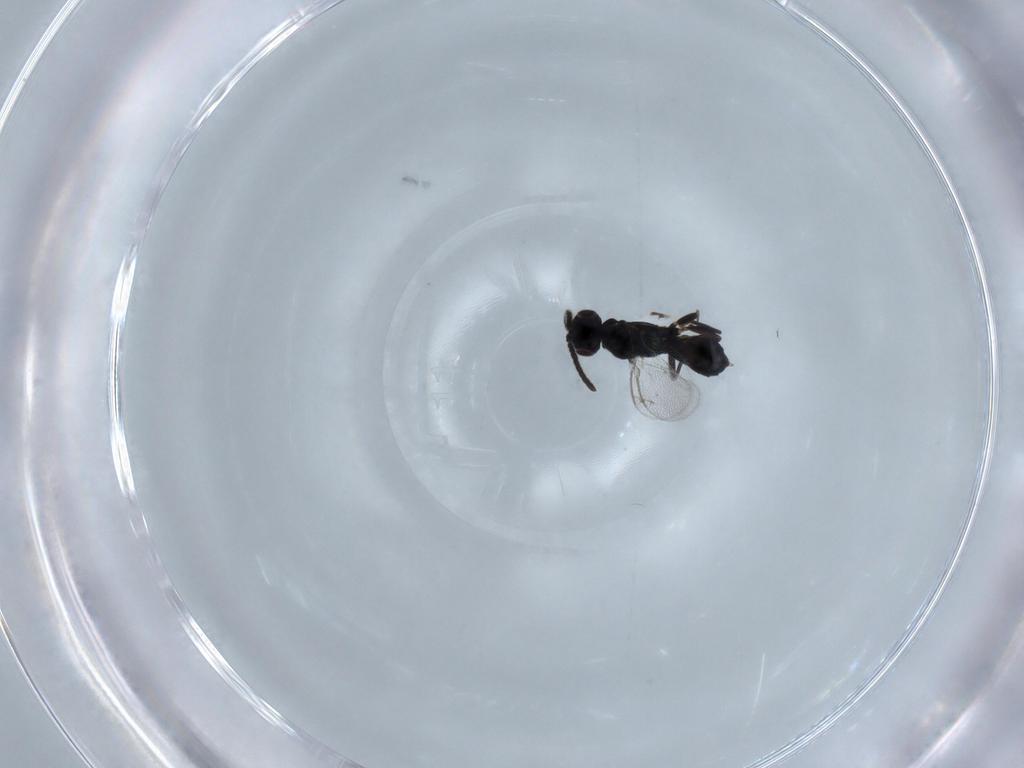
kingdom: Animalia
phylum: Arthropoda
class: Insecta
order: Hymenoptera
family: Eupelmidae
